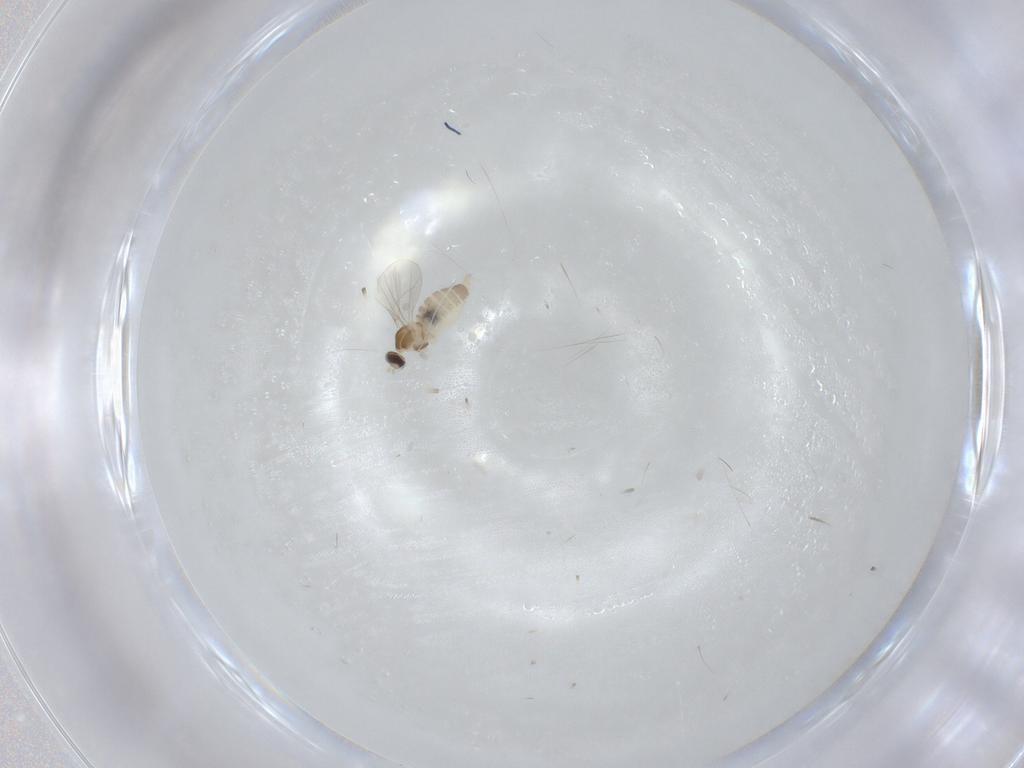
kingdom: Animalia
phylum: Arthropoda
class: Insecta
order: Diptera
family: Cecidomyiidae
